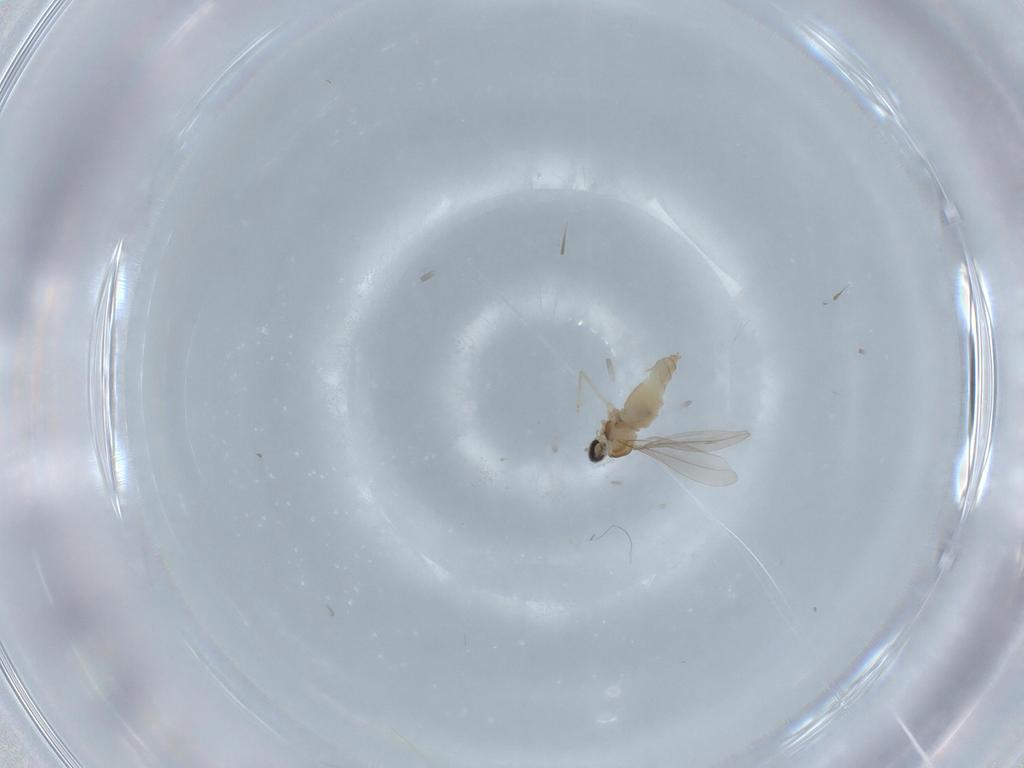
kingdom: Animalia
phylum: Arthropoda
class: Insecta
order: Diptera
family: Cecidomyiidae
